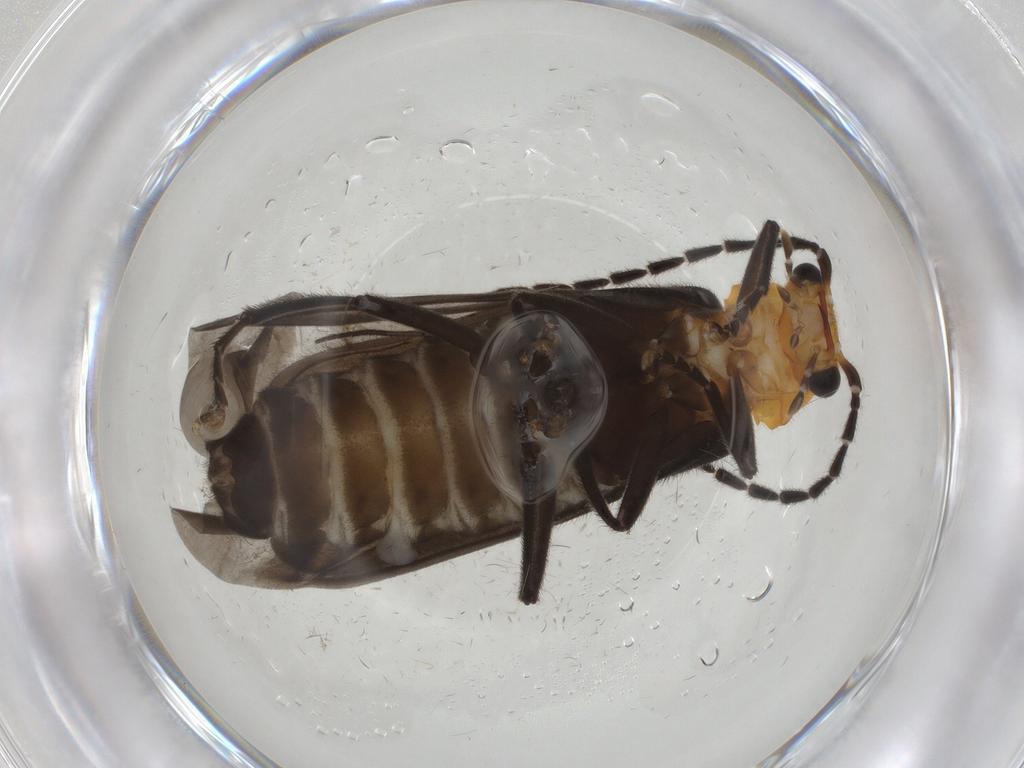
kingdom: Animalia
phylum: Arthropoda
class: Insecta
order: Coleoptera
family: Cantharidae
